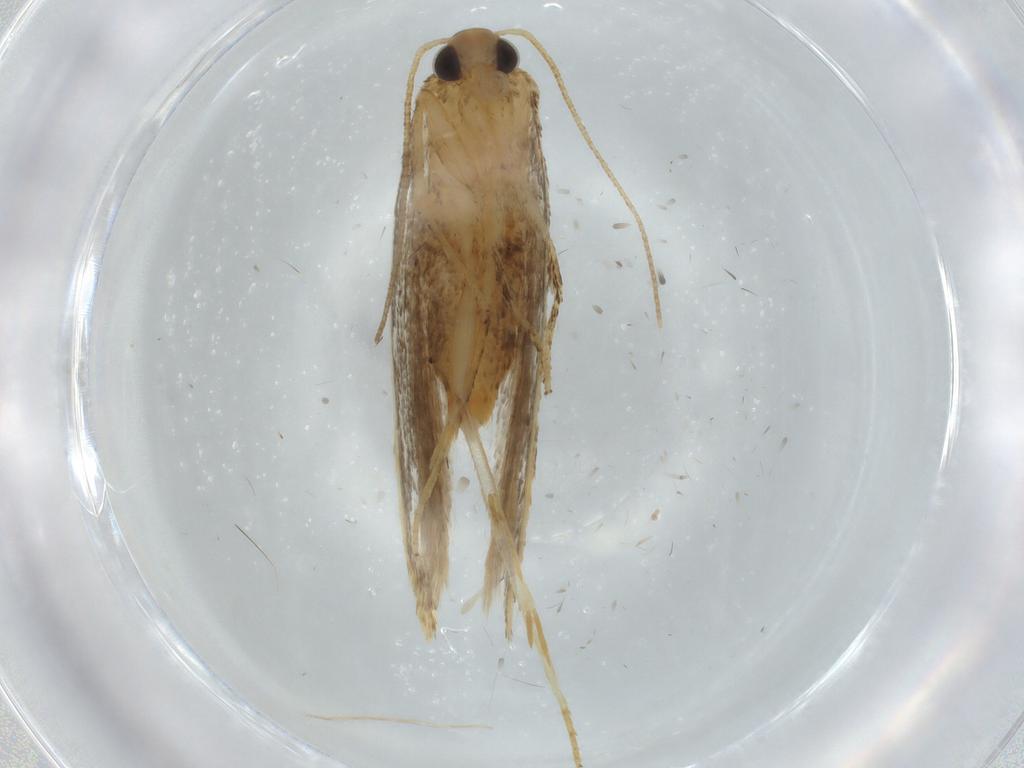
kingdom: Animalia
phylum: Arthropoda
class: Insecta
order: Lepidoptera
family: Gelechiidae
